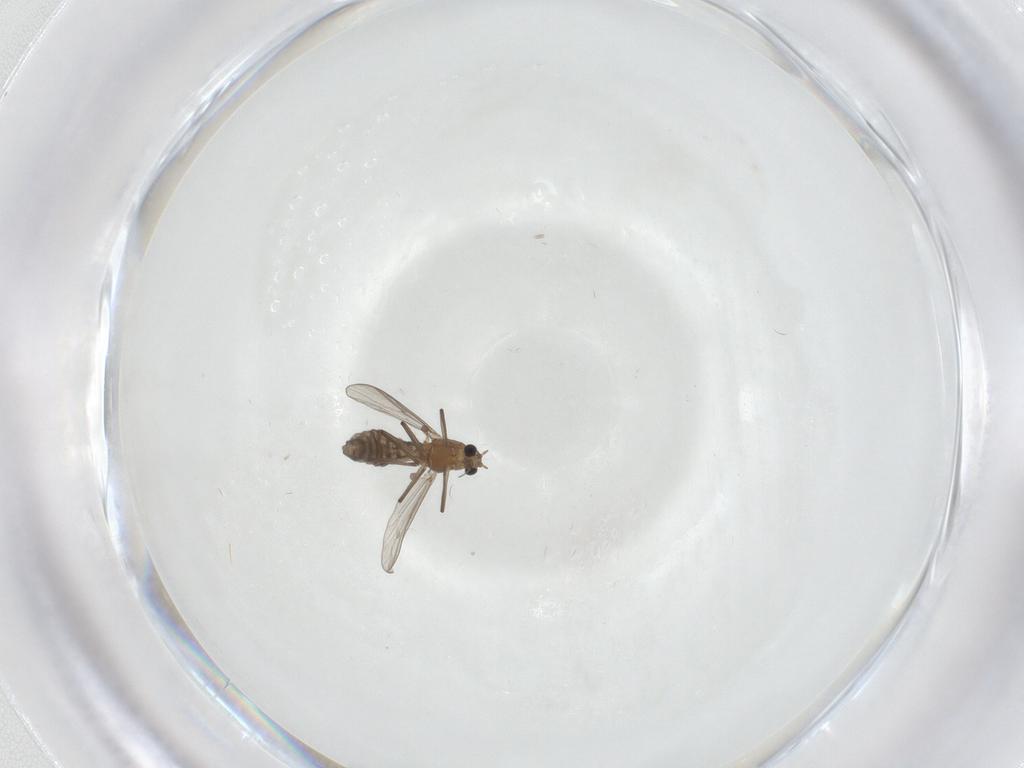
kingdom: Animalia
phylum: Arthropoda
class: Insecta
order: Diptera
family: Chironomidae
